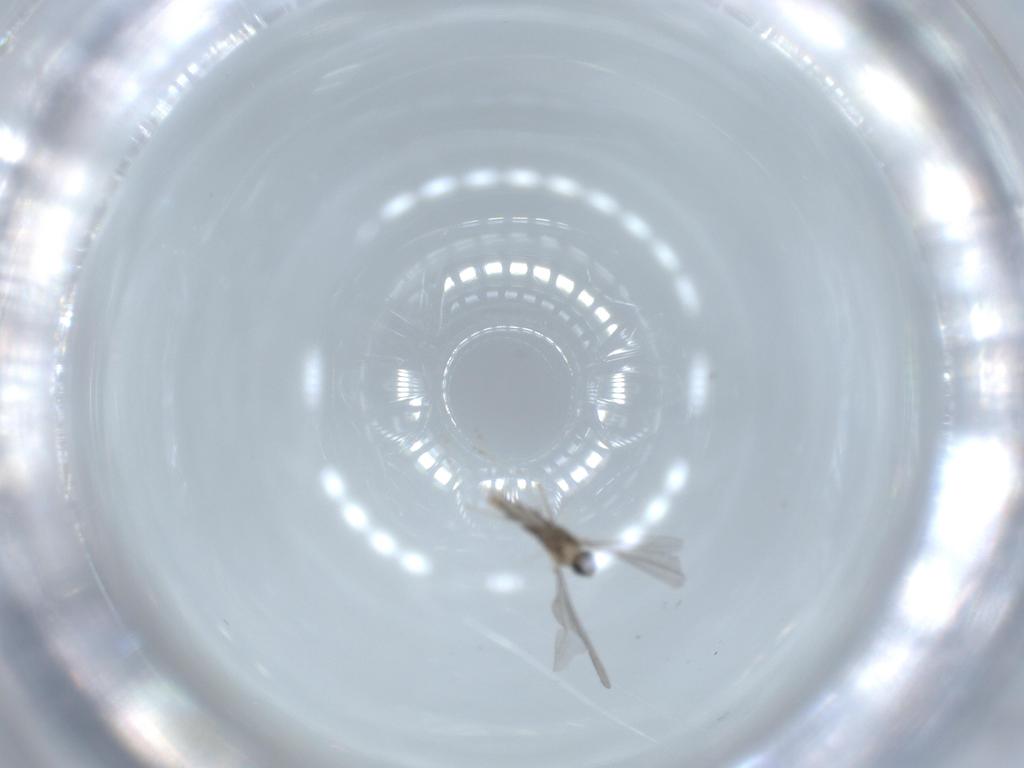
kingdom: Animalia
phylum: Arthropoda
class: Insecta
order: Diptera
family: Cecidomyiidae
